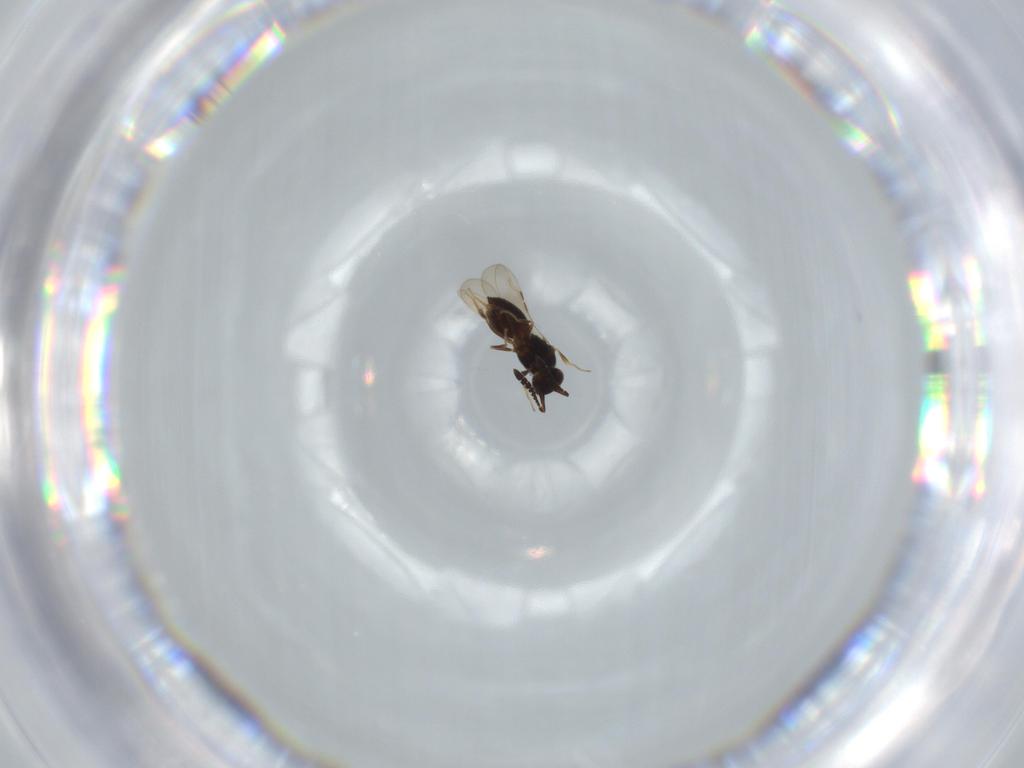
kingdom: Animalia
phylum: Arthropoda
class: Insecta
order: Hymenoptera
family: Ceraphronidae
